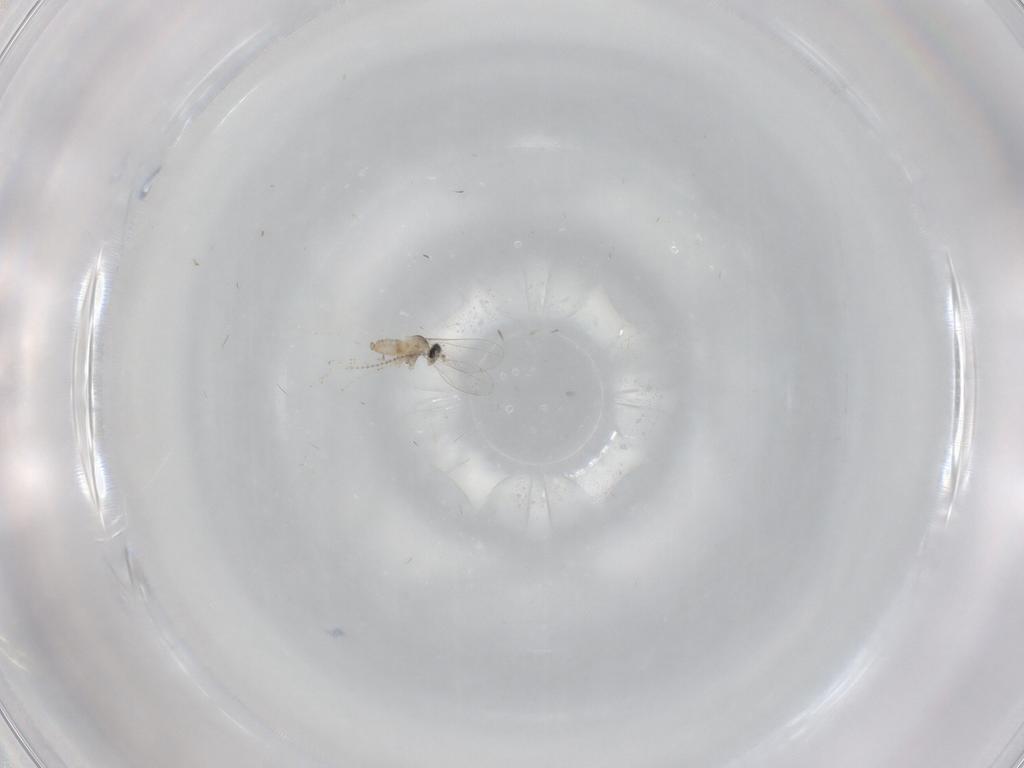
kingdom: Animalia
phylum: Arthropoda
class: Insecta
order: Diptera
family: Cecidomyiidae
